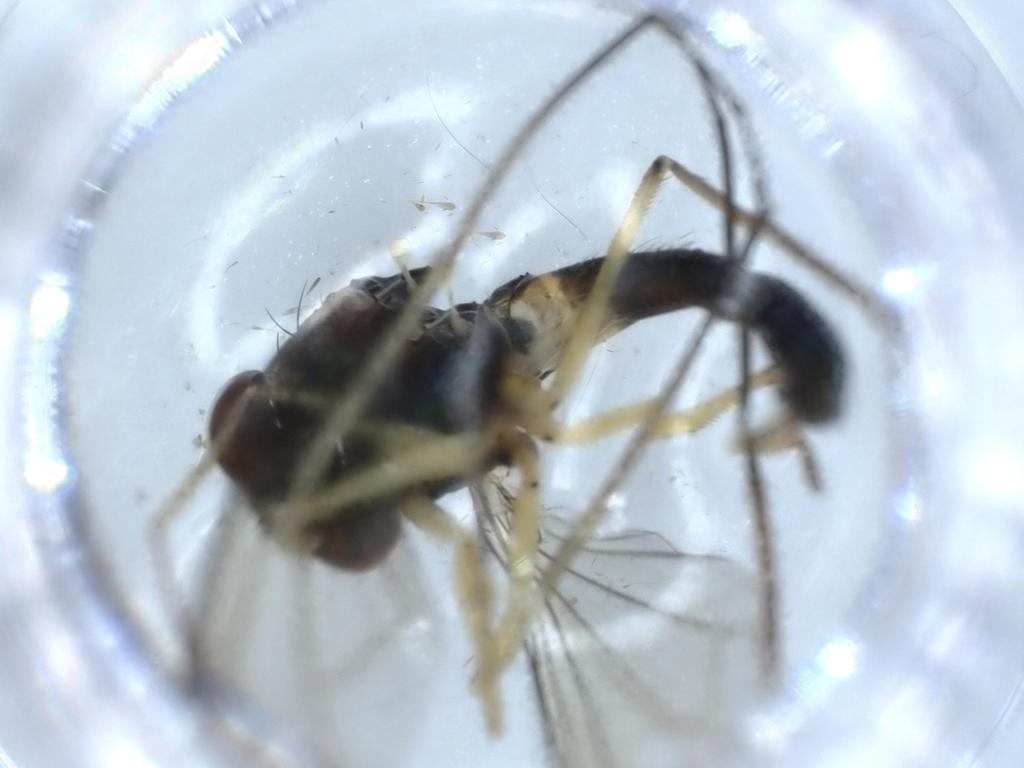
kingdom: Animalia
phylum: Arthropoda
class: Insecta
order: Diptera
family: Dolichopodidae
